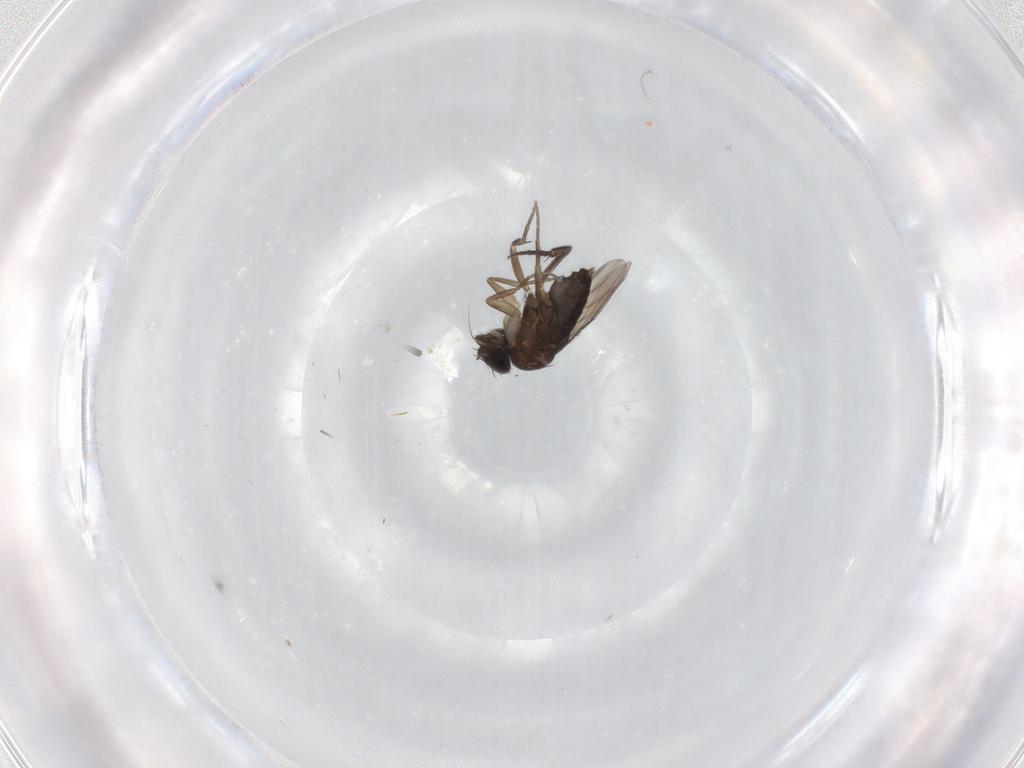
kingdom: Animalia
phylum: Arthropoda
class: Insecta
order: Diptera
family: Phoridae
